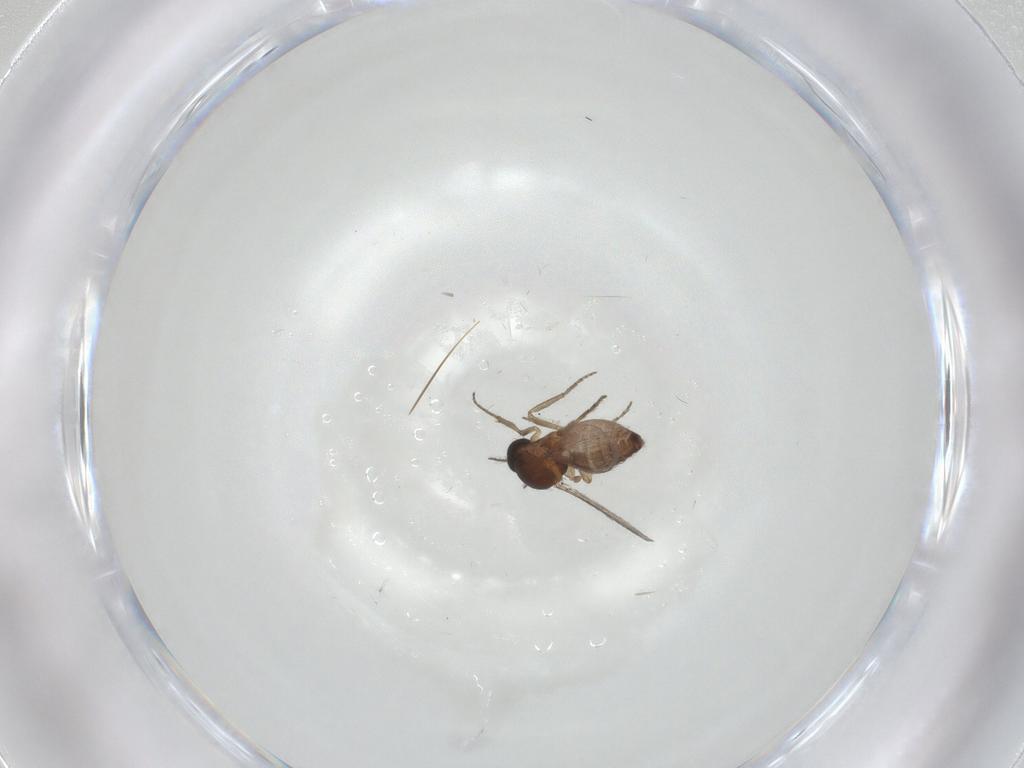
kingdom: Animalia
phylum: Arthropoda
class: Insecta
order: Diptera
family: Ceratopogonidae
